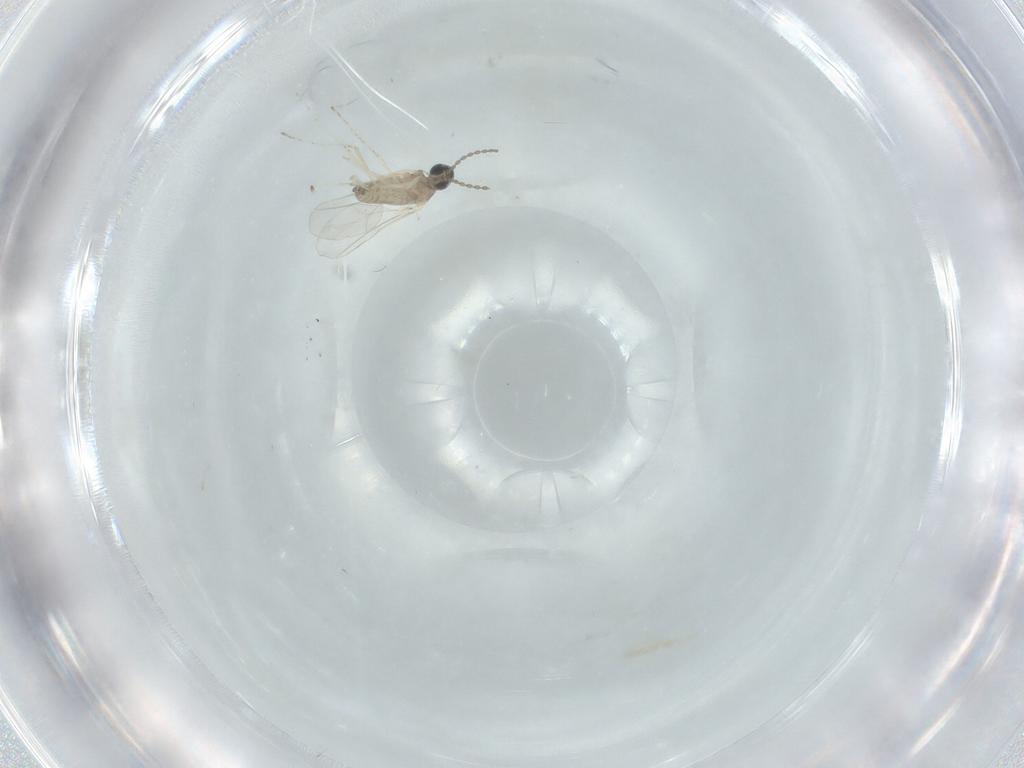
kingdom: Animalia
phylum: Arthropoda
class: Insecta
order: Diptera
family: Cecidomyiidae
